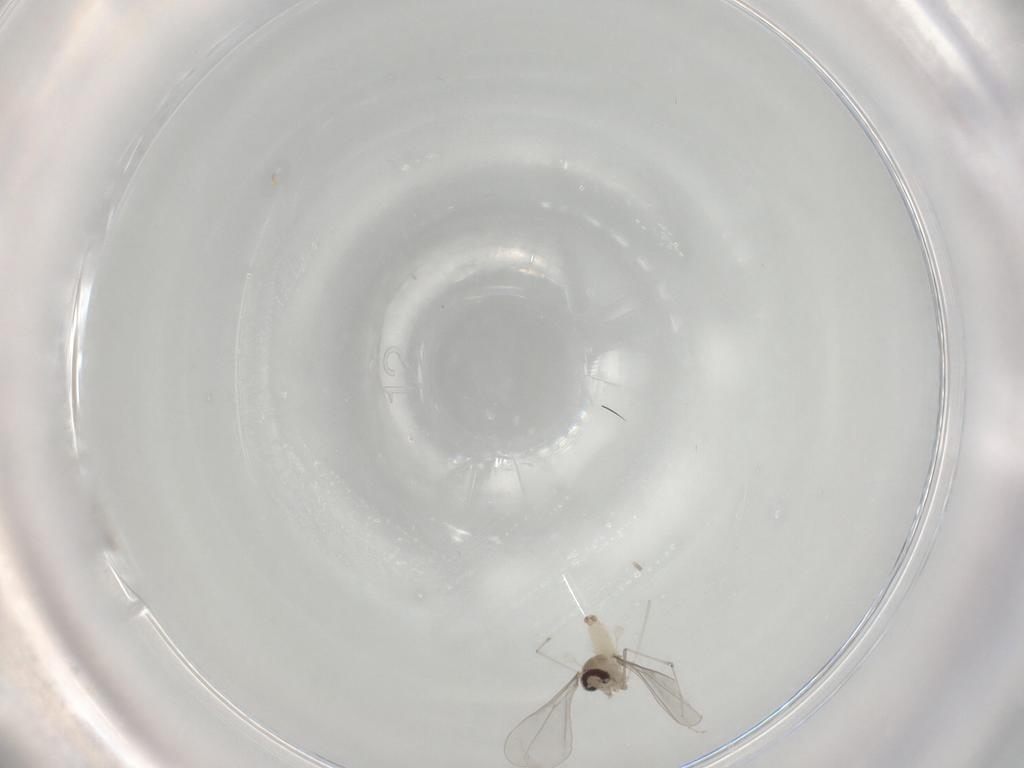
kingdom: Animalia
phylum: Arthropoda
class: Insecta
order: Diptera
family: Cecidomyiidae
